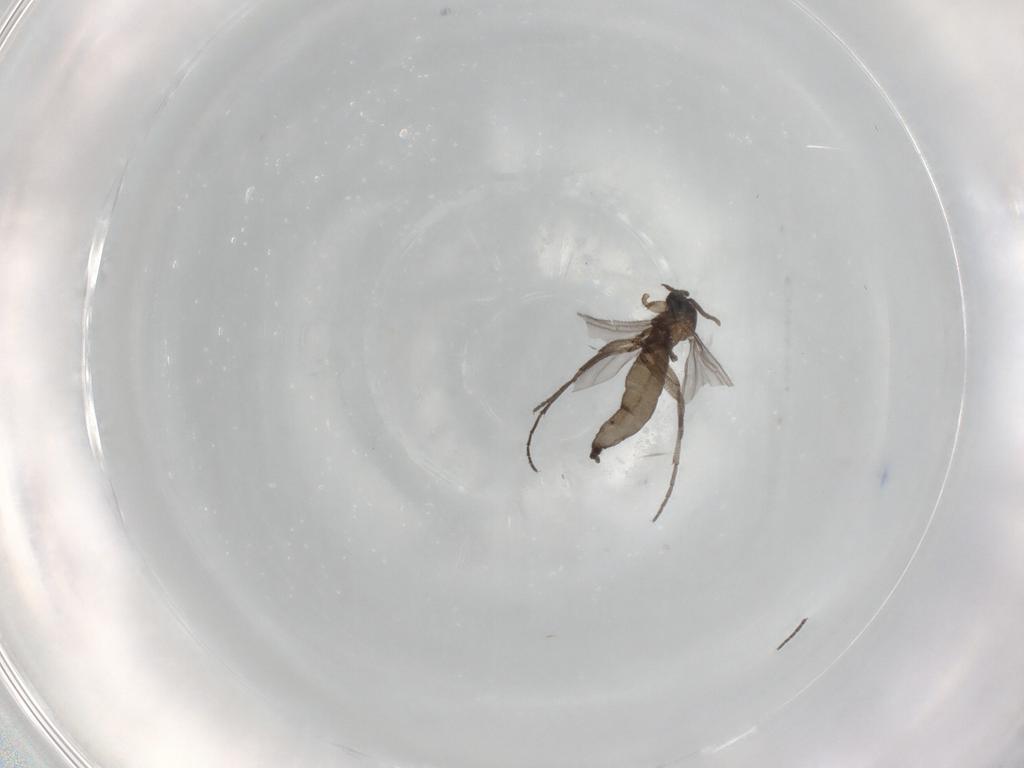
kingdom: Animalia
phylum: Arthropoda
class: Insecta
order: Diptera
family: Sciaridae
